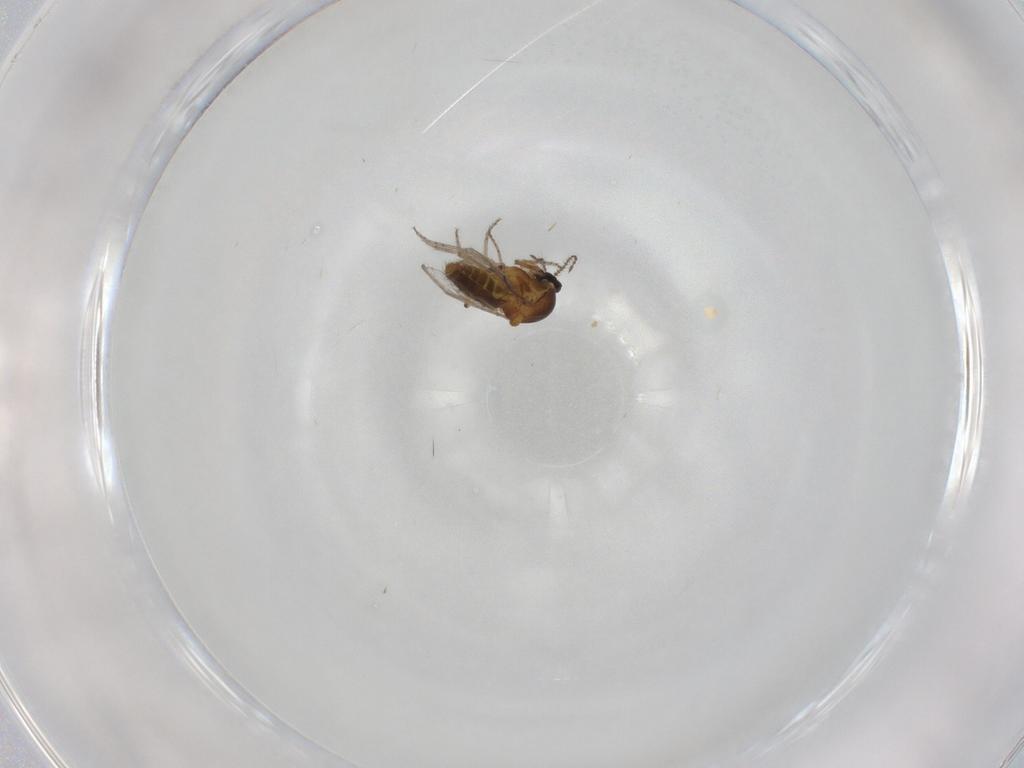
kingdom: Animalia
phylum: Arthropoda
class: Insecta
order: Diptera
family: Ceratopogonidae
